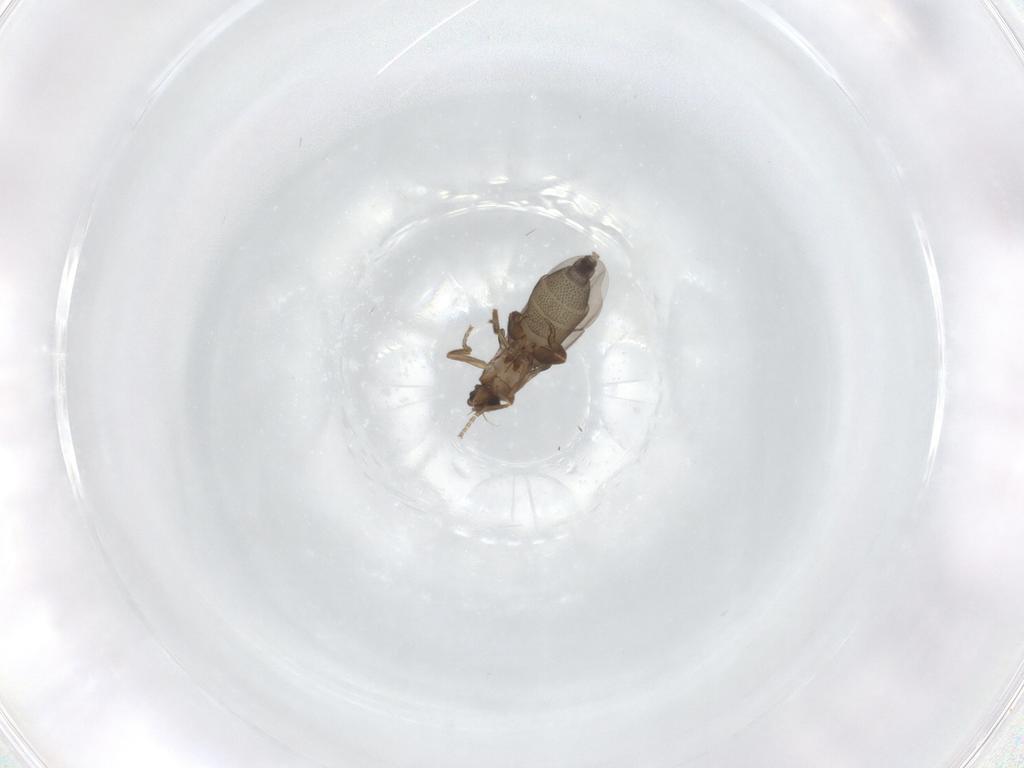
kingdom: Animalia
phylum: Arthropoda
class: Insecta
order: Diptera
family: Phoridae
